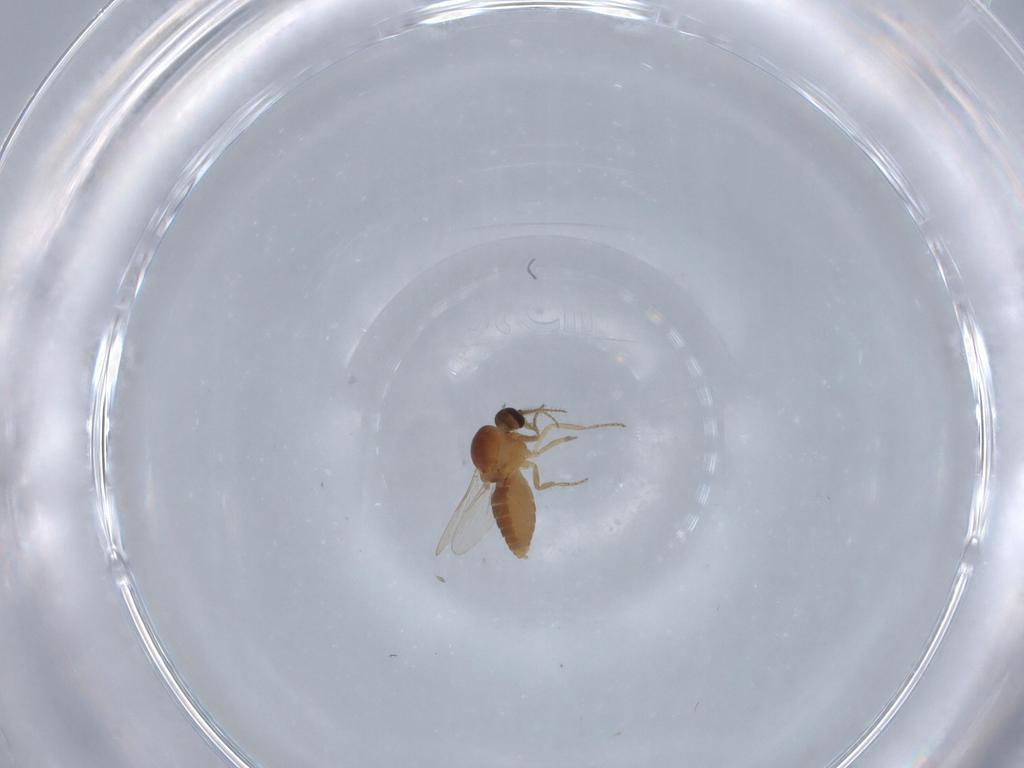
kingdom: Animalia
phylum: Arthropoda
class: Insecta
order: Diptera
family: Ceratopogonidae
